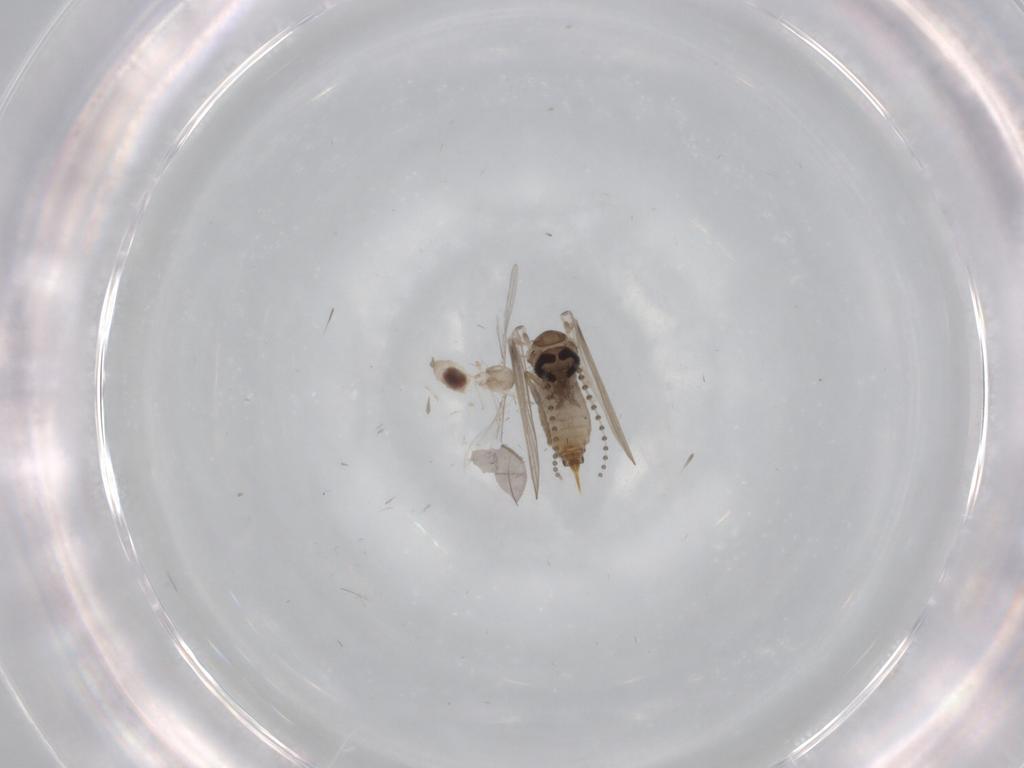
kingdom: Animalia
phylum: Arthropoda
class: Insecta
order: Diptera
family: Cecidomyiidae
